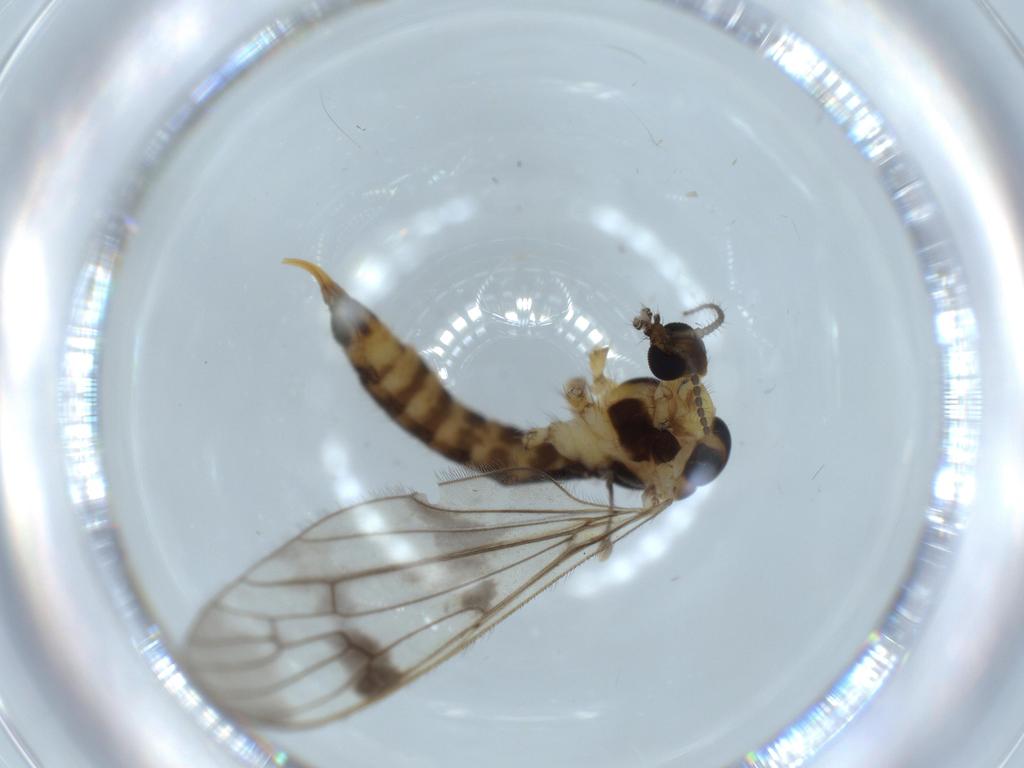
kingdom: Animalia
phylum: Arthropoda
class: Insecta
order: Diptera
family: Limoniidae
